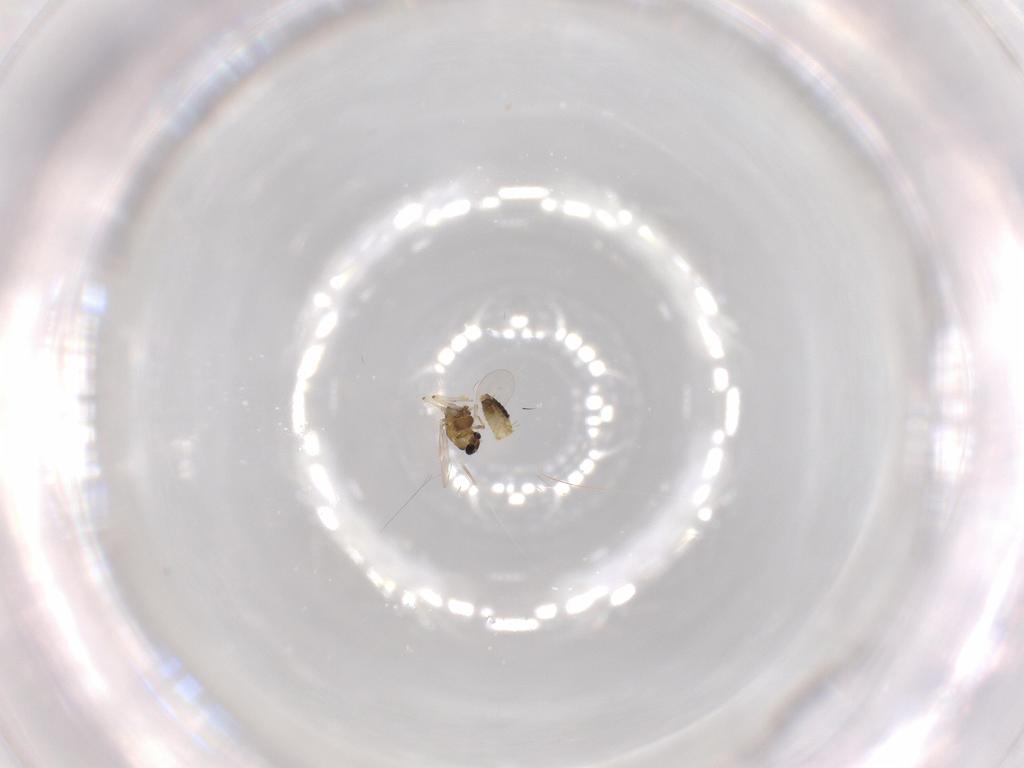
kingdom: Animalia
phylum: Arthropoda
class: Insecta
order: Diptera
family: Chironomidae
